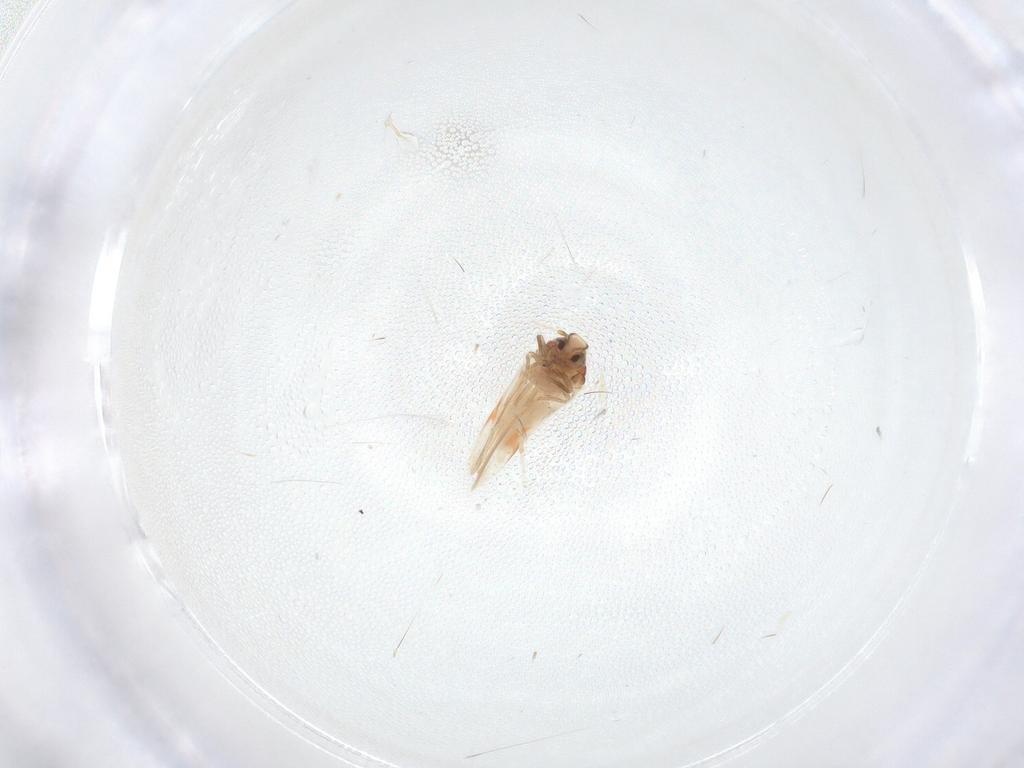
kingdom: Animalia
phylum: Arthropoda
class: Insecta
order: Hemiptera
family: Aleyrodidae
